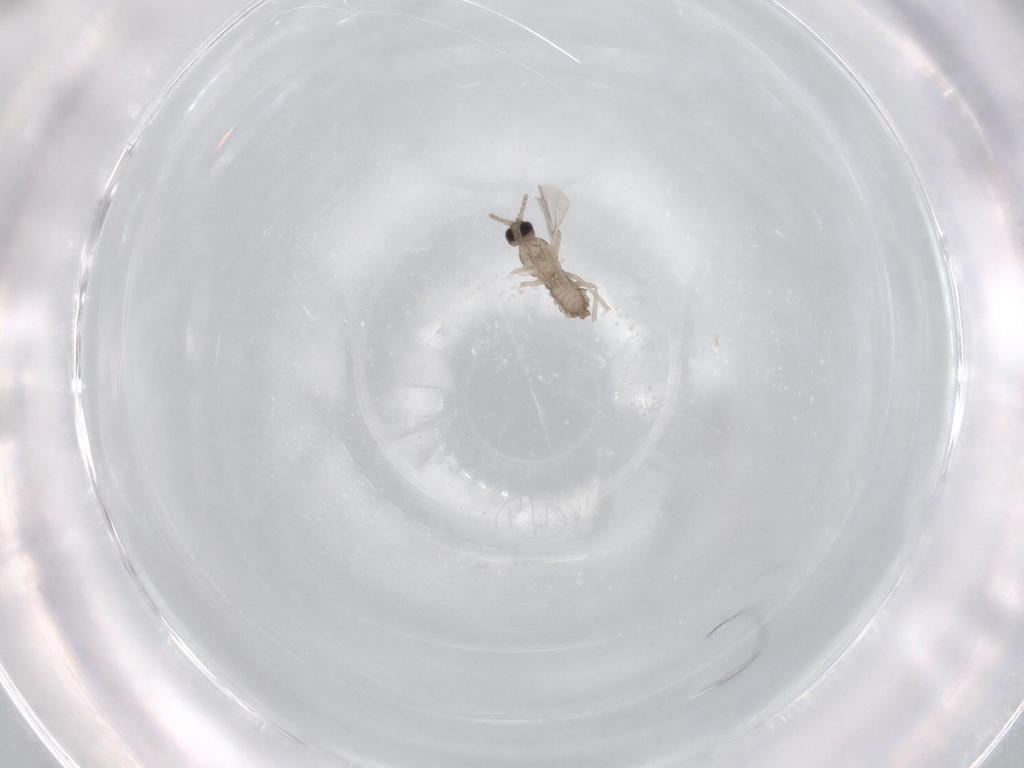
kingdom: Animalia
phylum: Arthropoda
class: Insecta
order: Diptera
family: Cecidomyiidae
